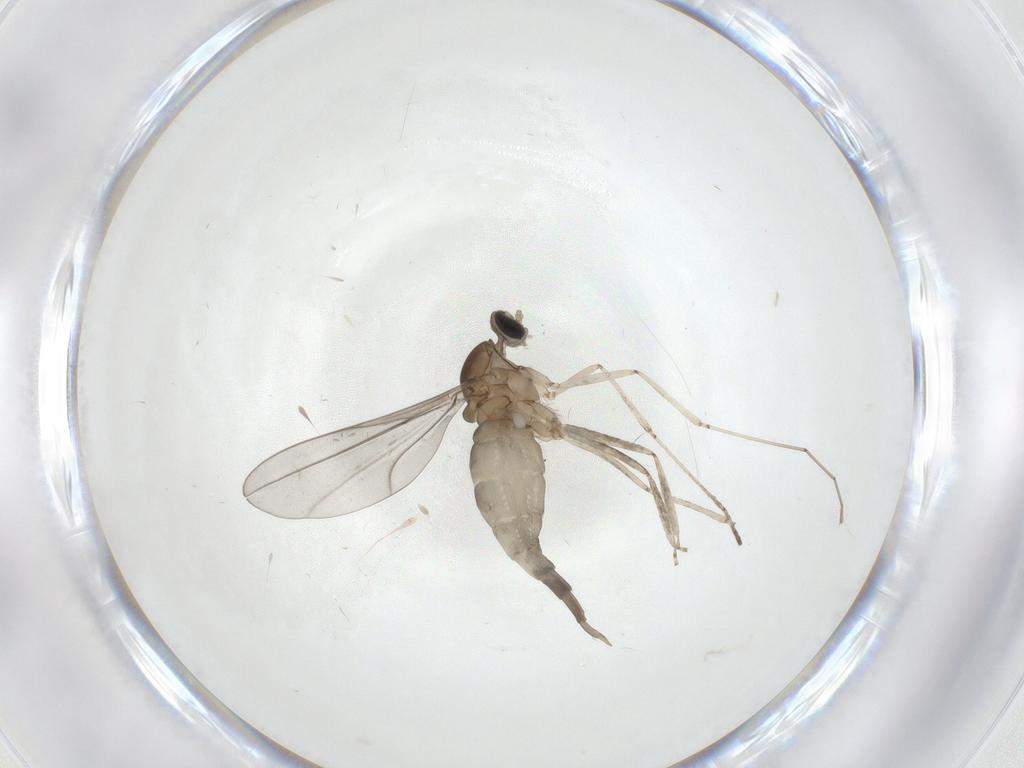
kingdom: Animalia
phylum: Arthropoda
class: Insecta
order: Diptera
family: Cecidomyiidae
